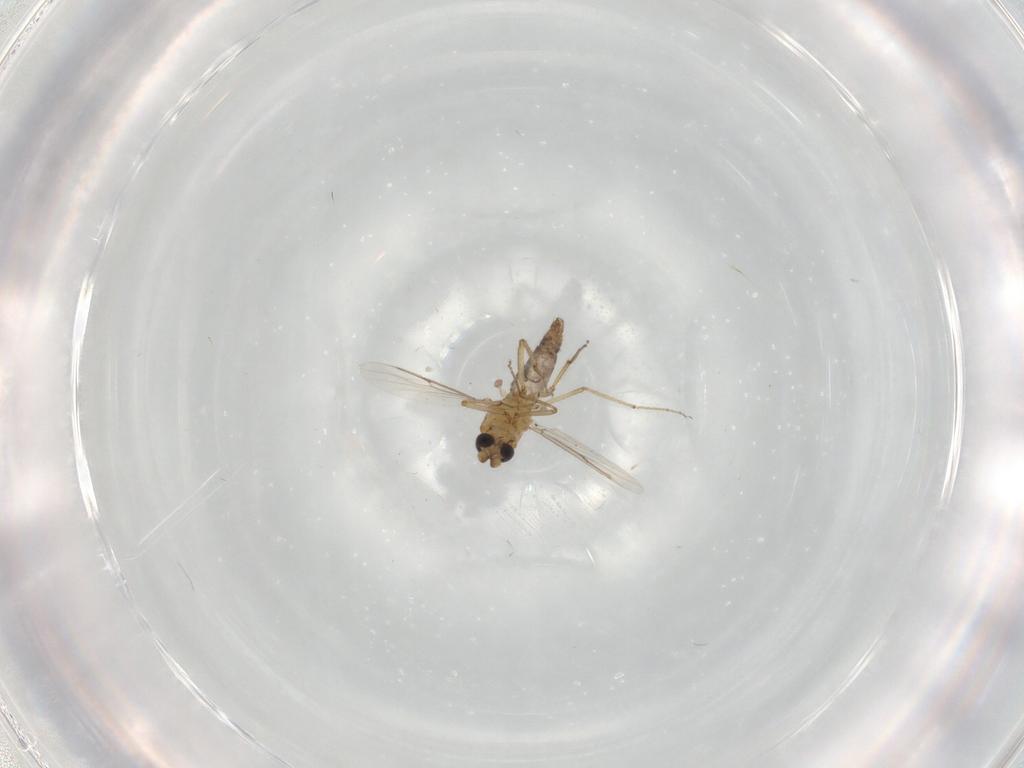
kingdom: Animalia
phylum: Arthropoda
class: Insecta
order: Diptera
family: Ceratopogonidae
